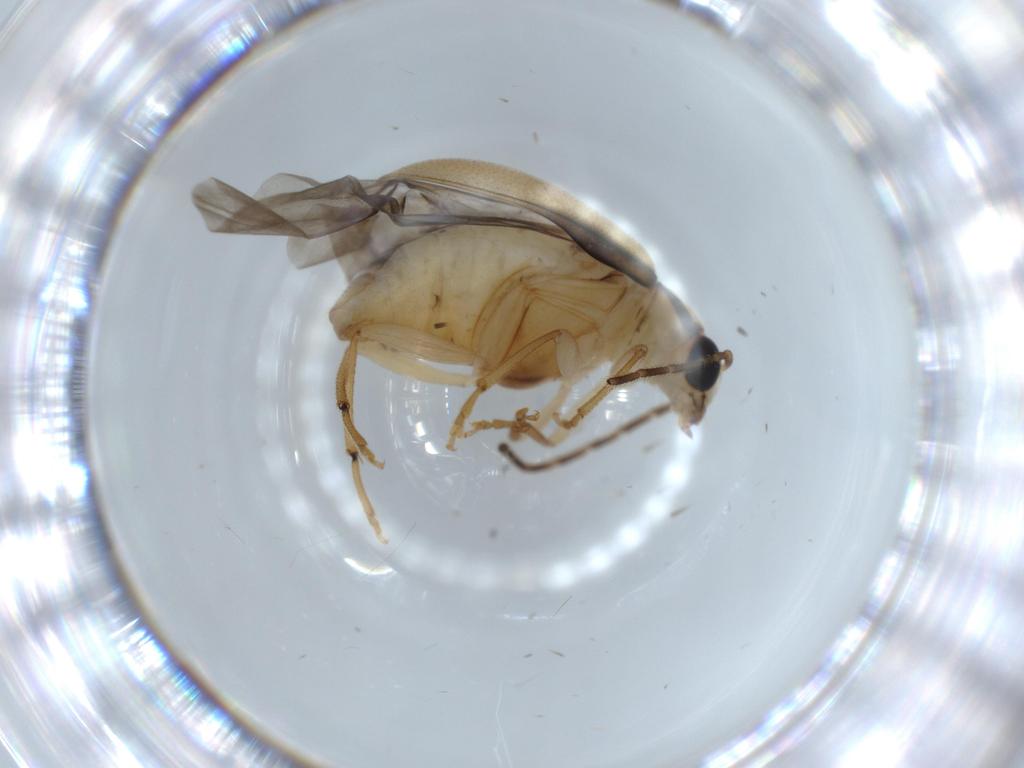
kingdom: Animalia
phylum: Arthropoda
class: Insecta
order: Coleoptera
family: Chrysomelidae
